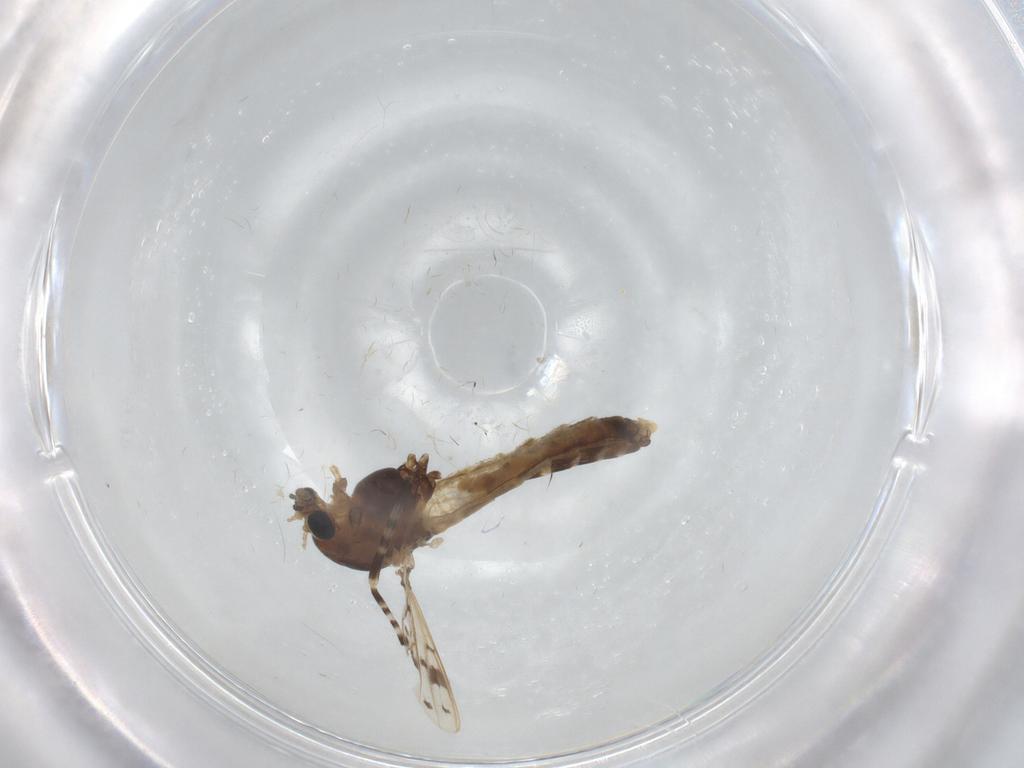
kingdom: Animalia
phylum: Arthropoda
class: Insecta
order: Diptera
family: Chironomidae
